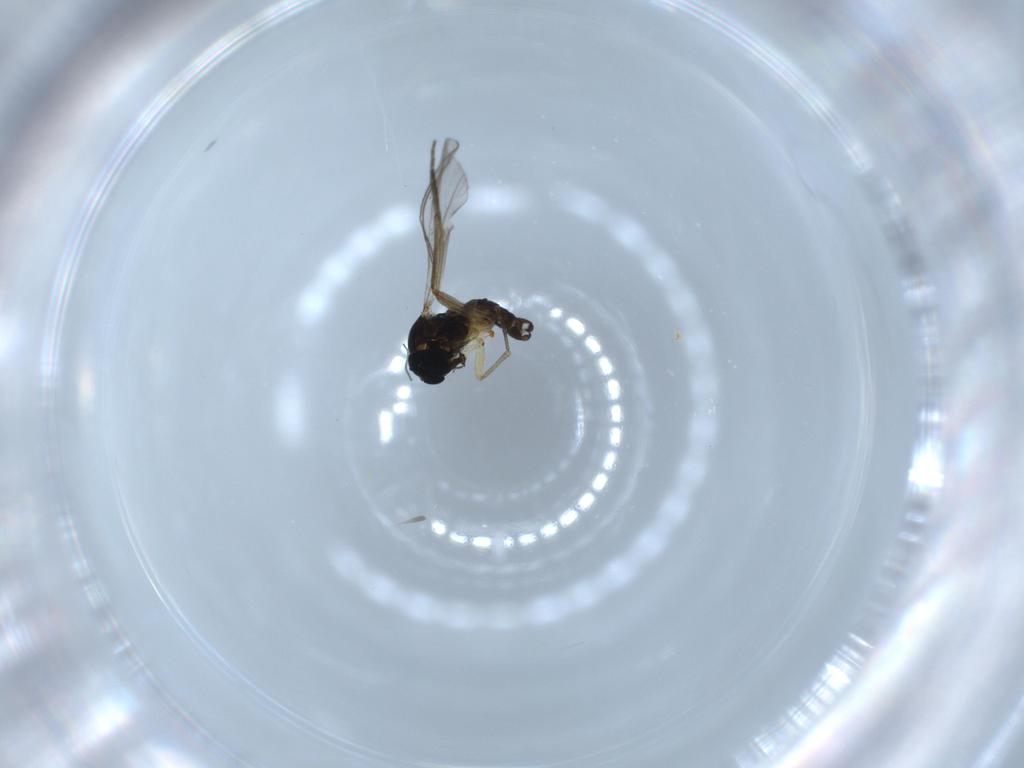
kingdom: Animalia
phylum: Arthropoda
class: Insecta
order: Diptera
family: Sciaridae
